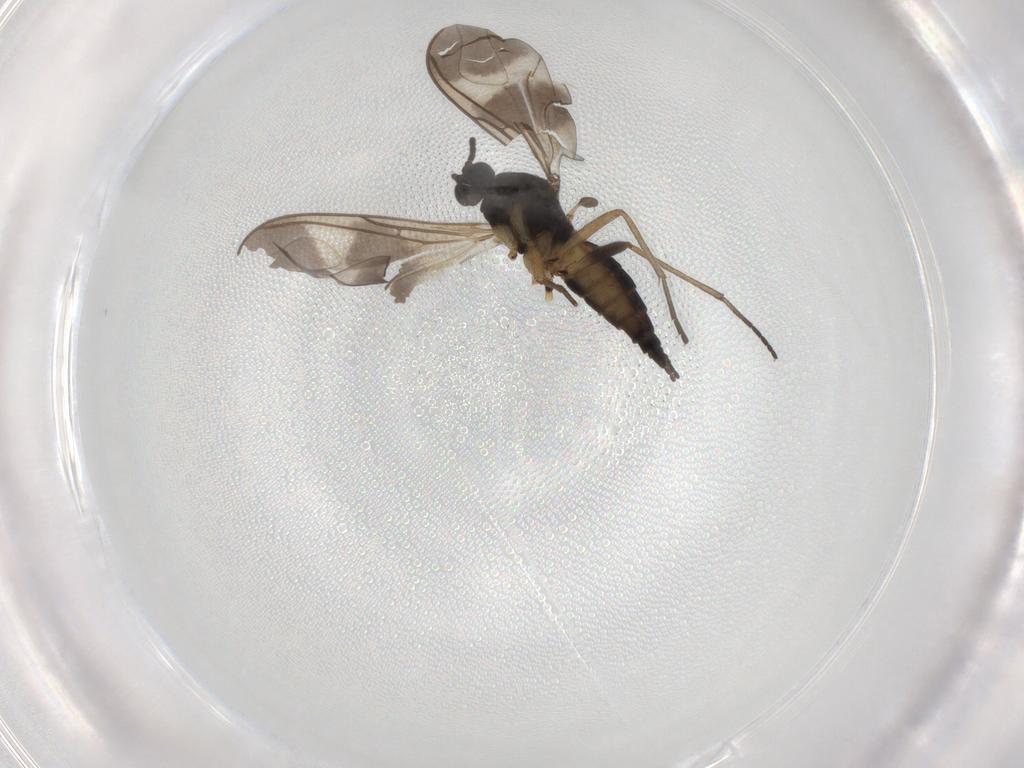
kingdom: Animalia
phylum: Arthropoda
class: Insecta
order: Diptera
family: Sciaridae
